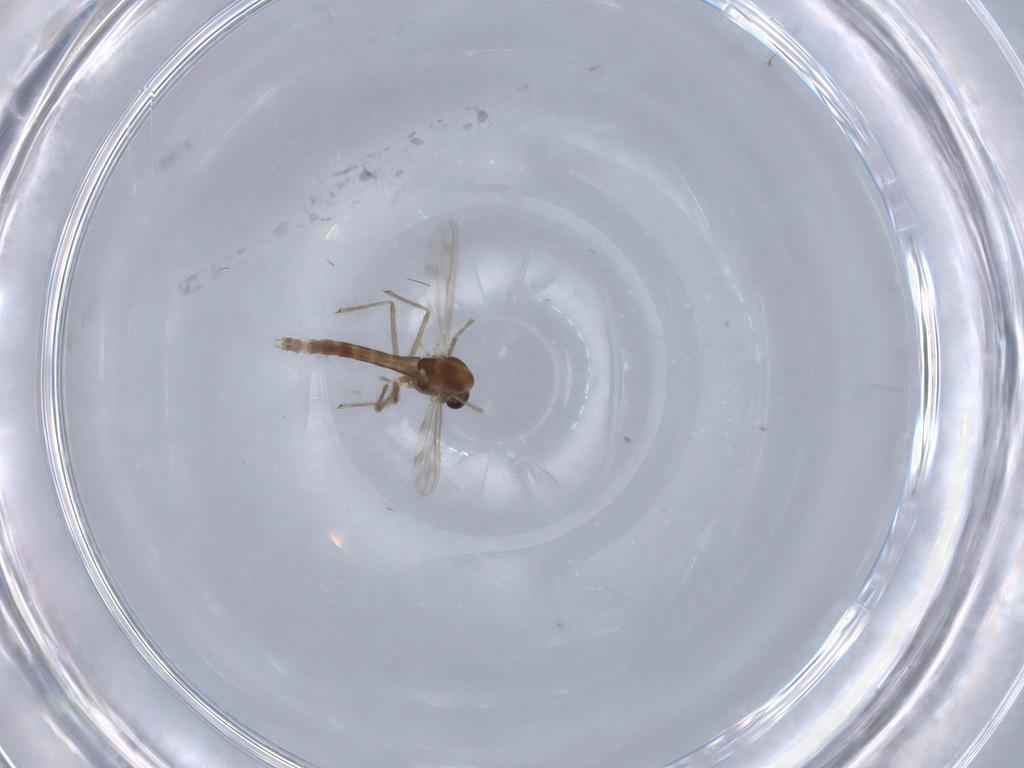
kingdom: Animalia
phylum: Arthropoda
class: Insecta
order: Diptera
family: Chironomidae
